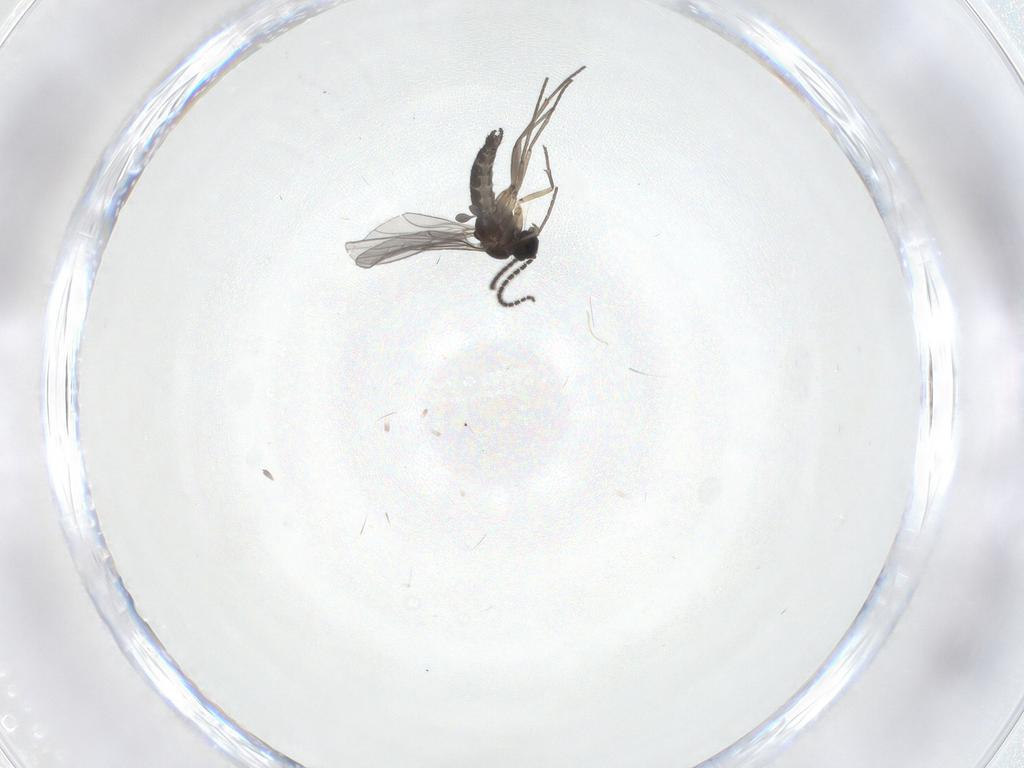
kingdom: Animalia
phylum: Arthropoda
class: Insecta
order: Diptera
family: Sciaridae
